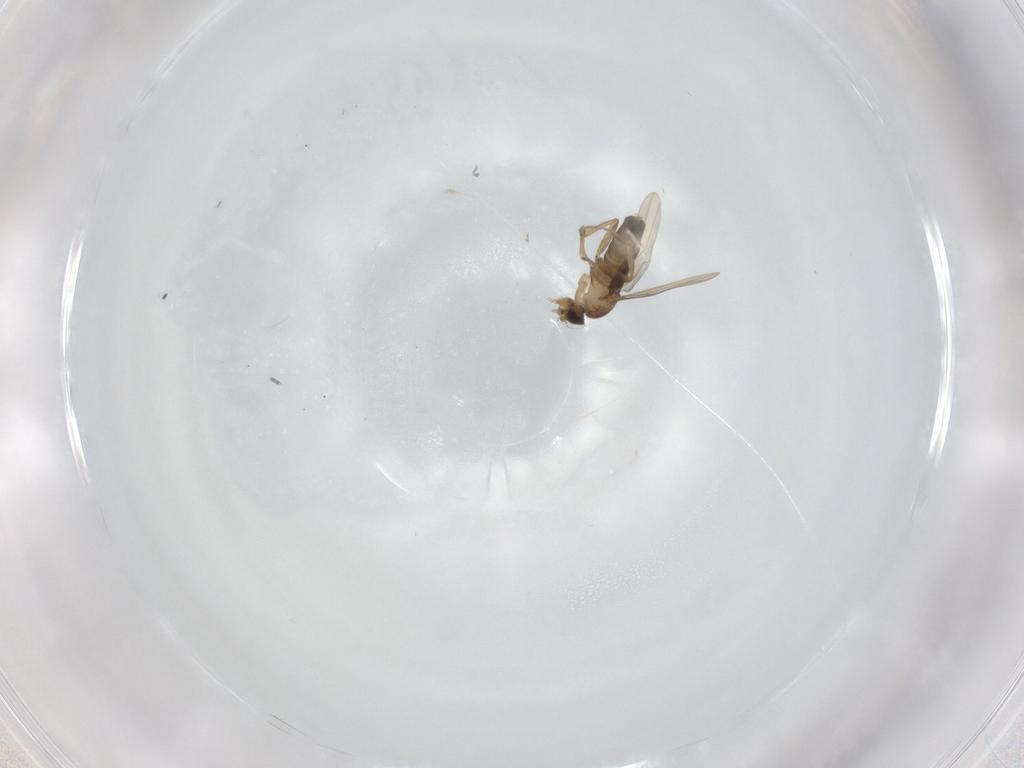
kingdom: Animalia
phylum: Arthropoda
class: Insecta
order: Diptera
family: Phoridae
